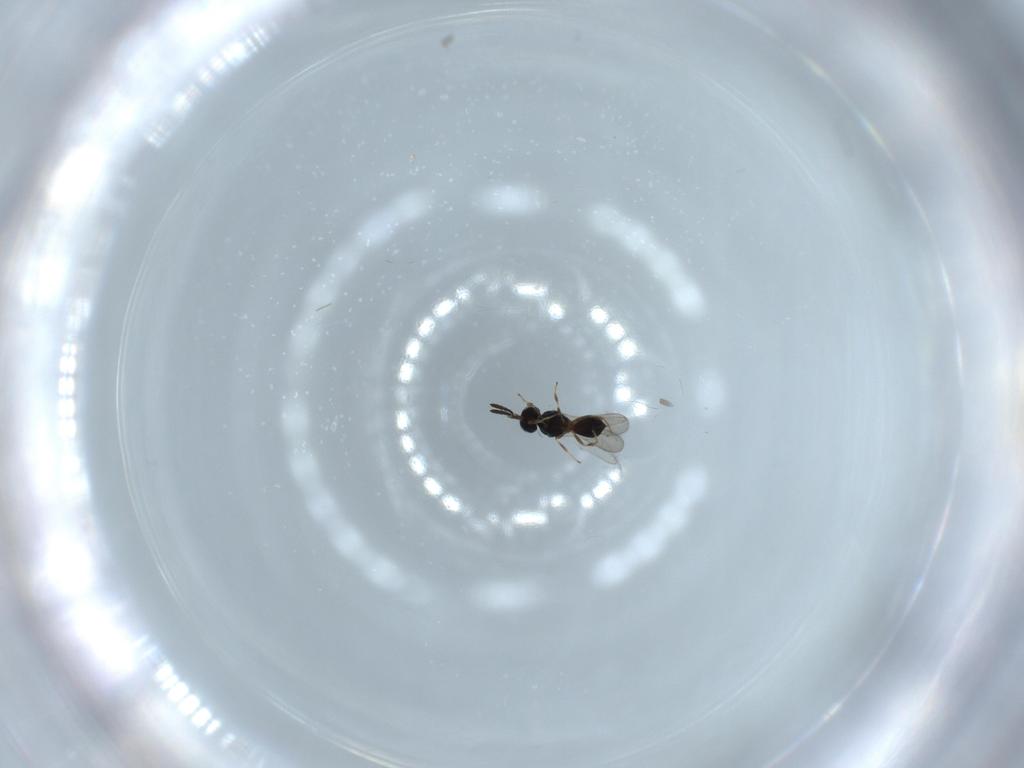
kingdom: Animalia
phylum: Arthropoda
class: Insecta
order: Hymenoptera
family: Scelionidae
